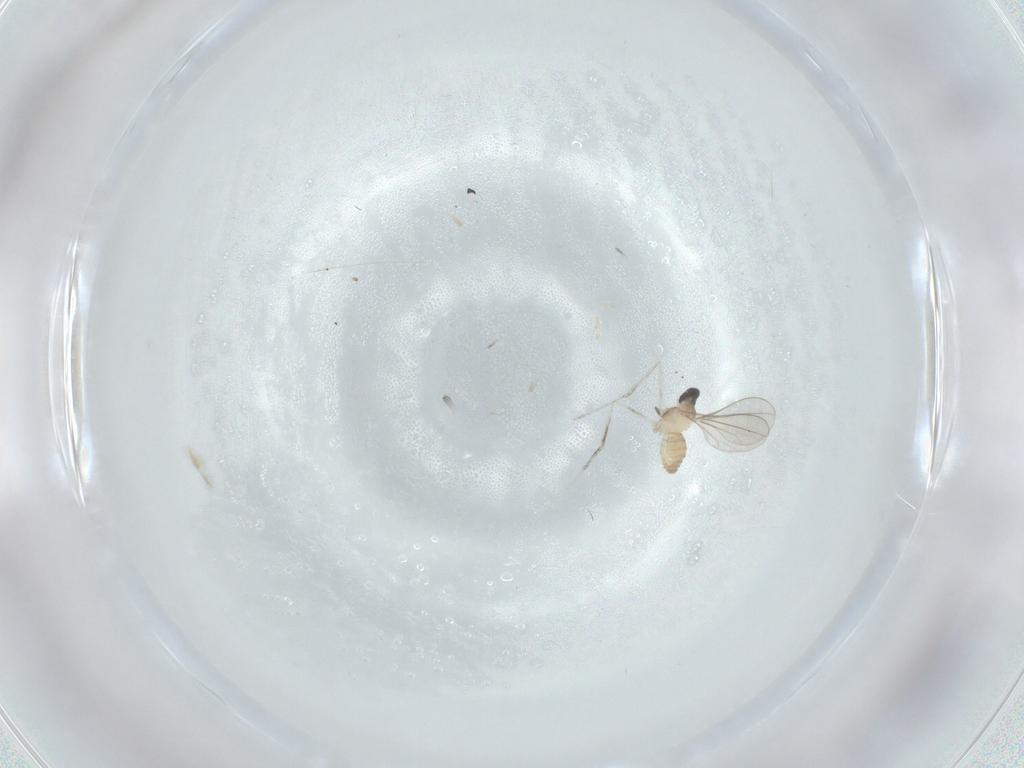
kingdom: Animalia
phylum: Arthropoda
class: Insecta
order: Diptera
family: Cecidomyiidae
